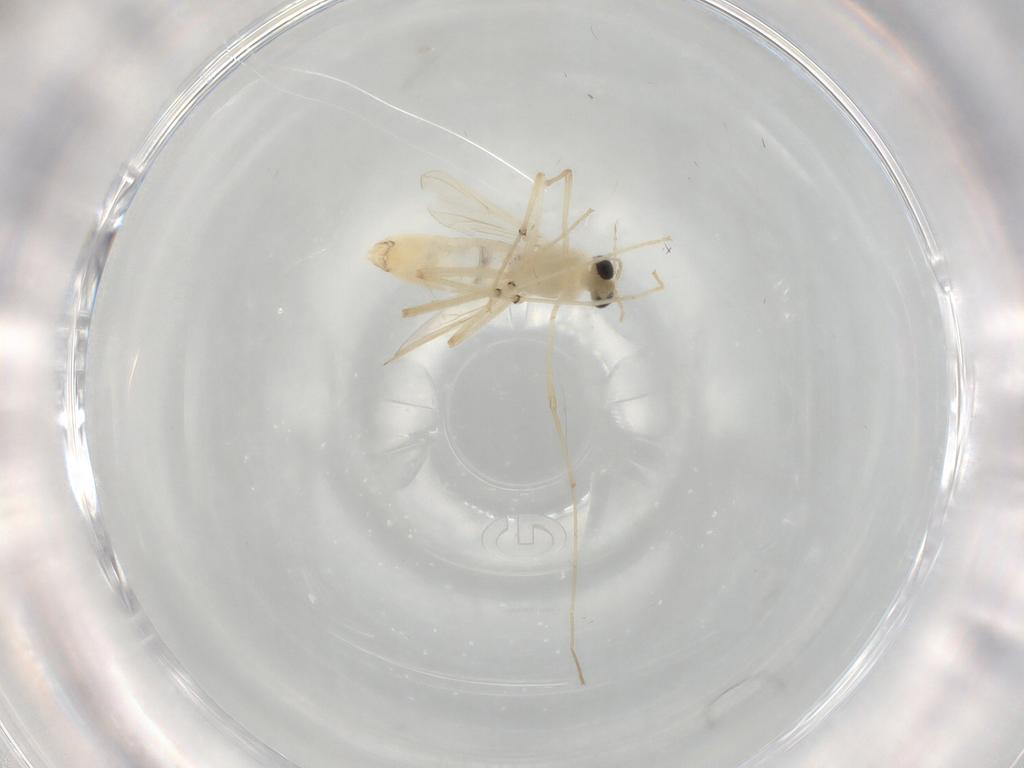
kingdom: Animalia
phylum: Arthropoda
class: Insecta
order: Diptera
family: Chironomidae
